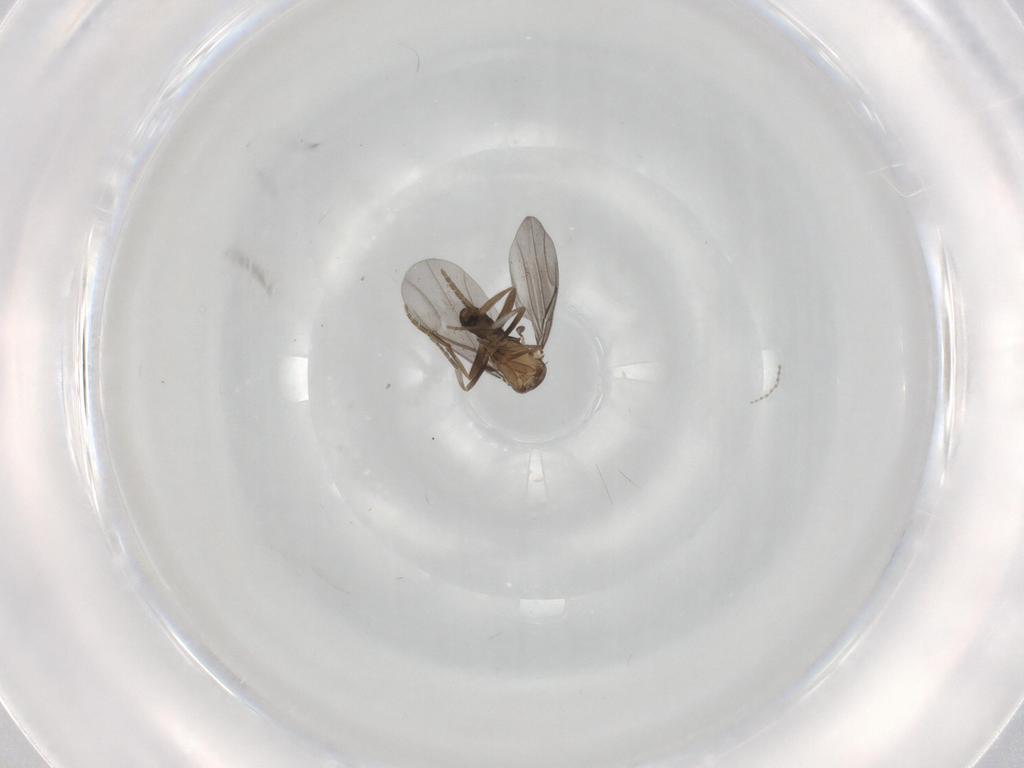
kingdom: Animalia
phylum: Arthropoda
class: Insecta
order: Diptera
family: Phoridae
